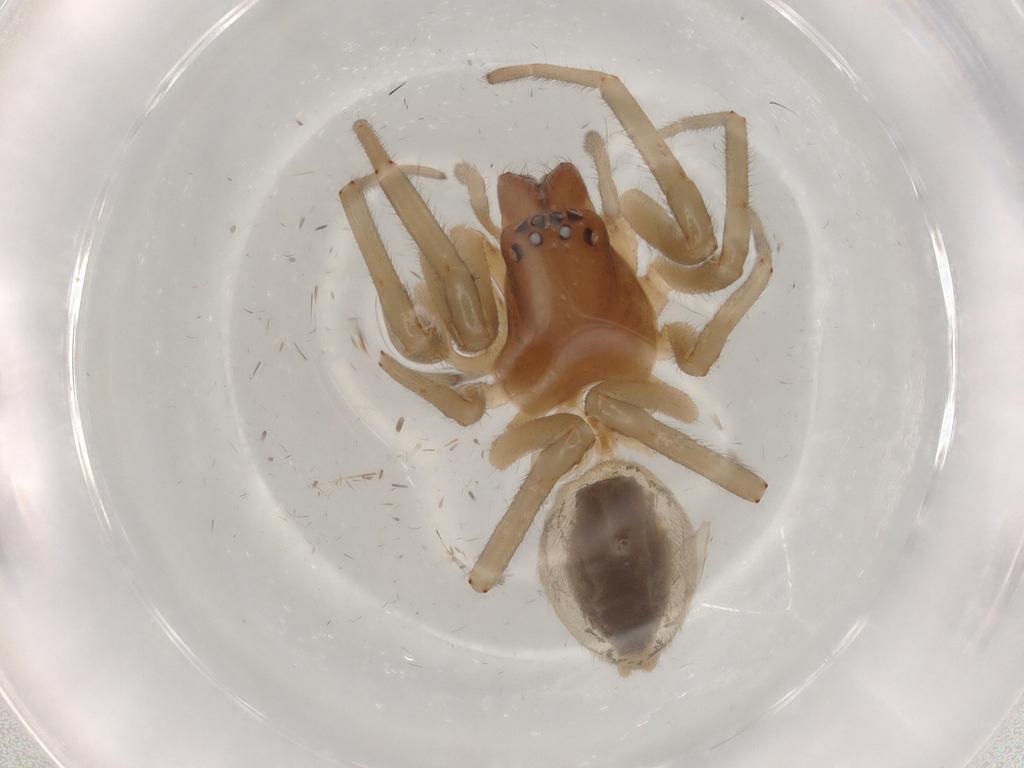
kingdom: Animalia
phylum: Arthropoda
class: Arachnida
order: Araneae
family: Trachelidae
